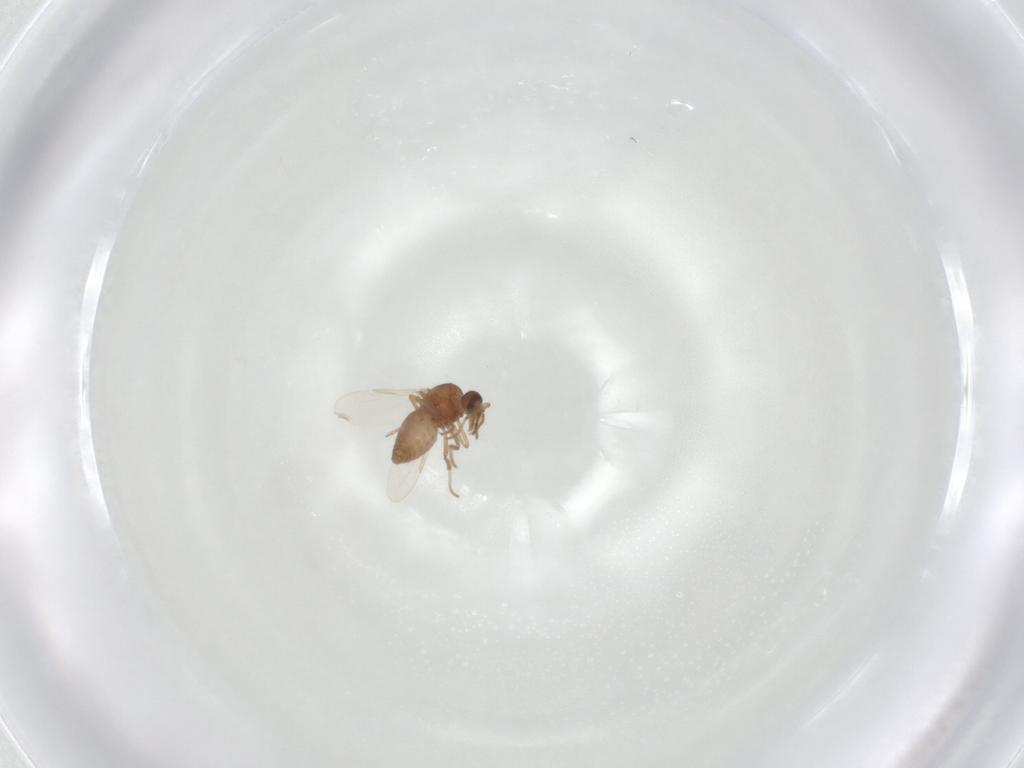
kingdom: Animalia
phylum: Arthropoda
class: Insecta
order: Diptera
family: Ceratopogonidae
